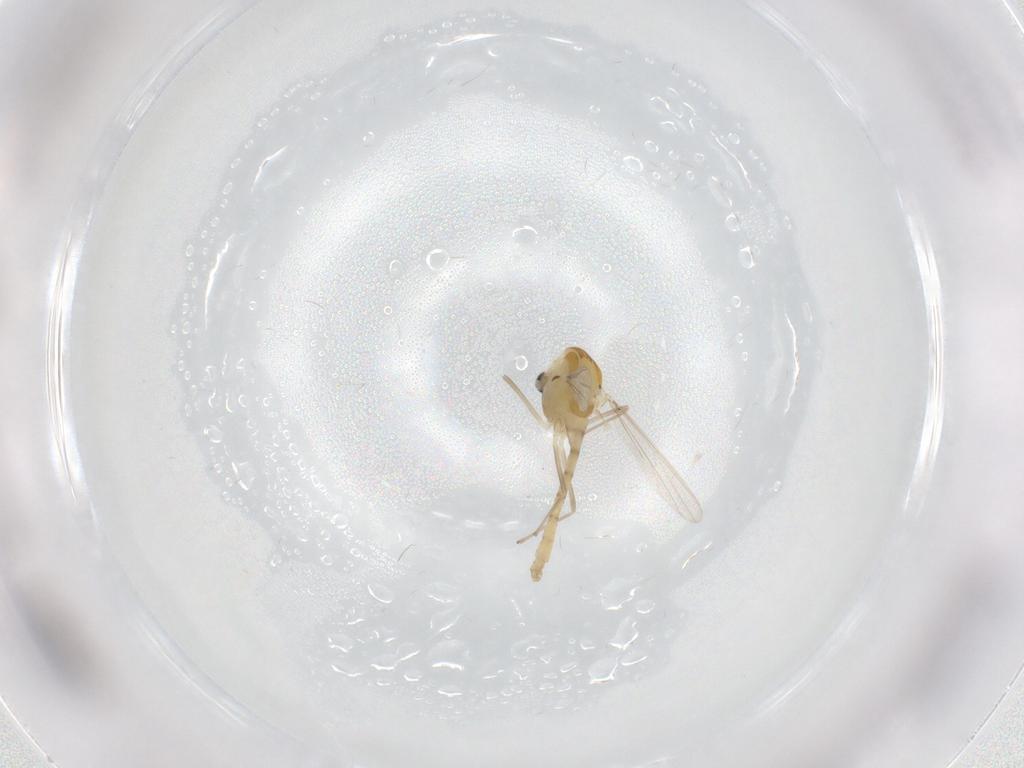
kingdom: Animalia
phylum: Arthropoda
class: Insecta
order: Diptera
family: Chironomidae
